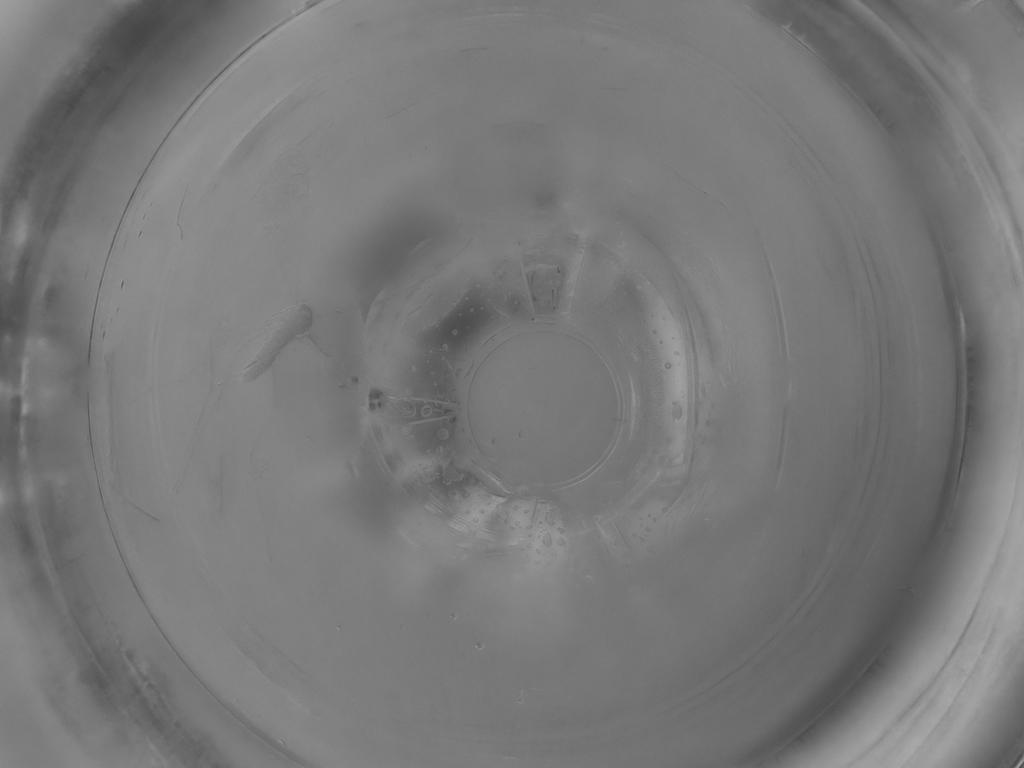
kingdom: Animalia
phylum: Arthropoda
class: Insecta
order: Diptera
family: Cecidomyiidae
